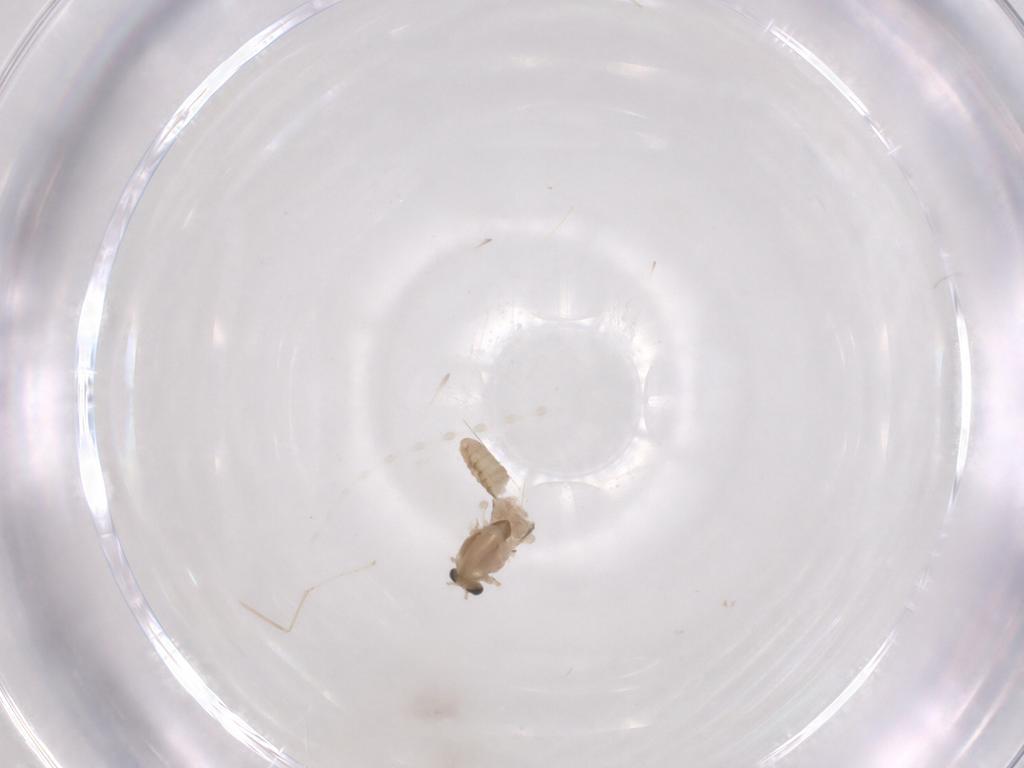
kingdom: Animalia
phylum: Arthropoda
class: Insecta
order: Diptera
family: Chironomidae
